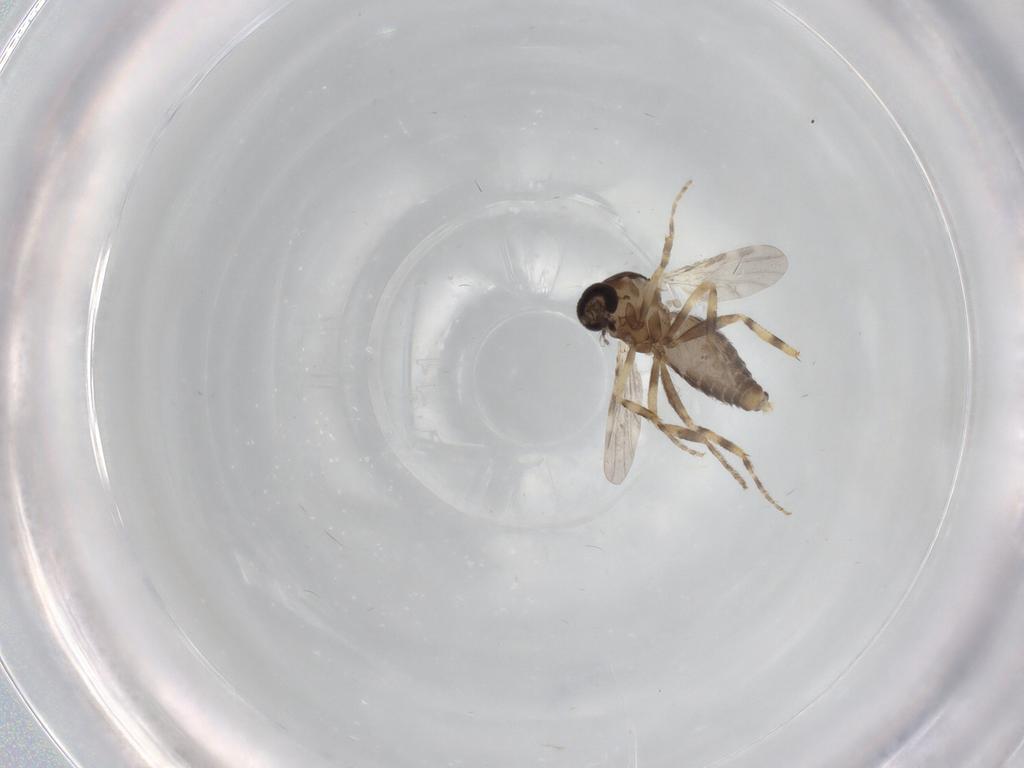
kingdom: Animalia
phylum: Arthropoda
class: Insecta
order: Diptera
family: Ceratopogonidae
